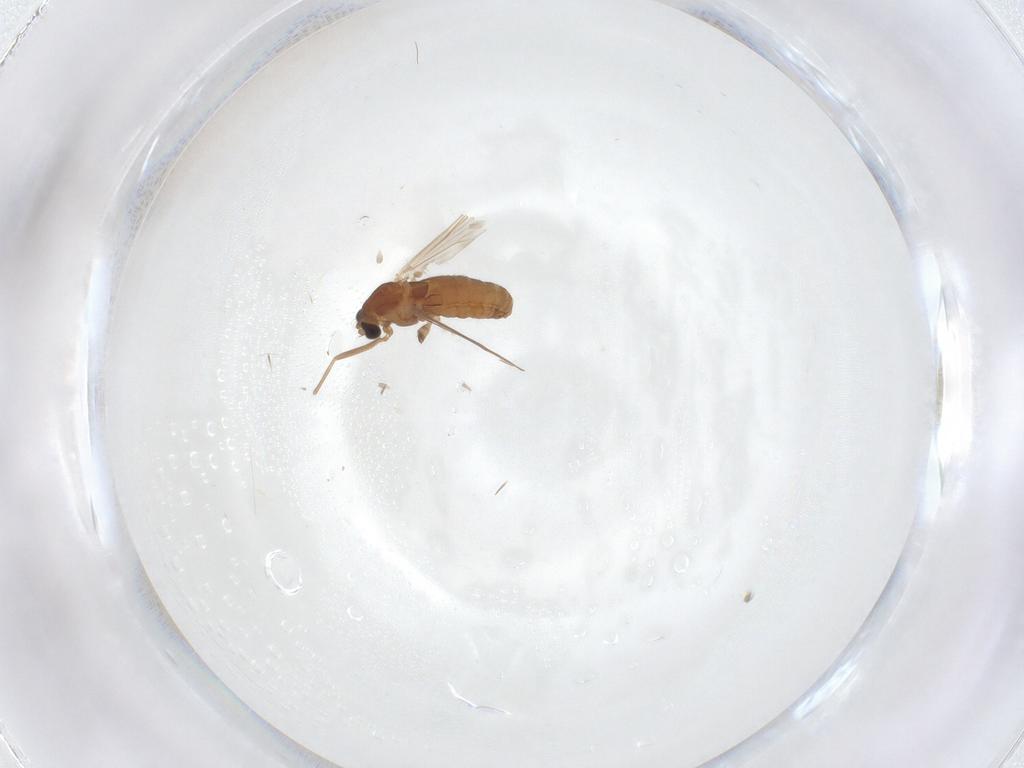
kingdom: Animalia
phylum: Arthropoda
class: Insecta
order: Diptera
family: Chironomidae
